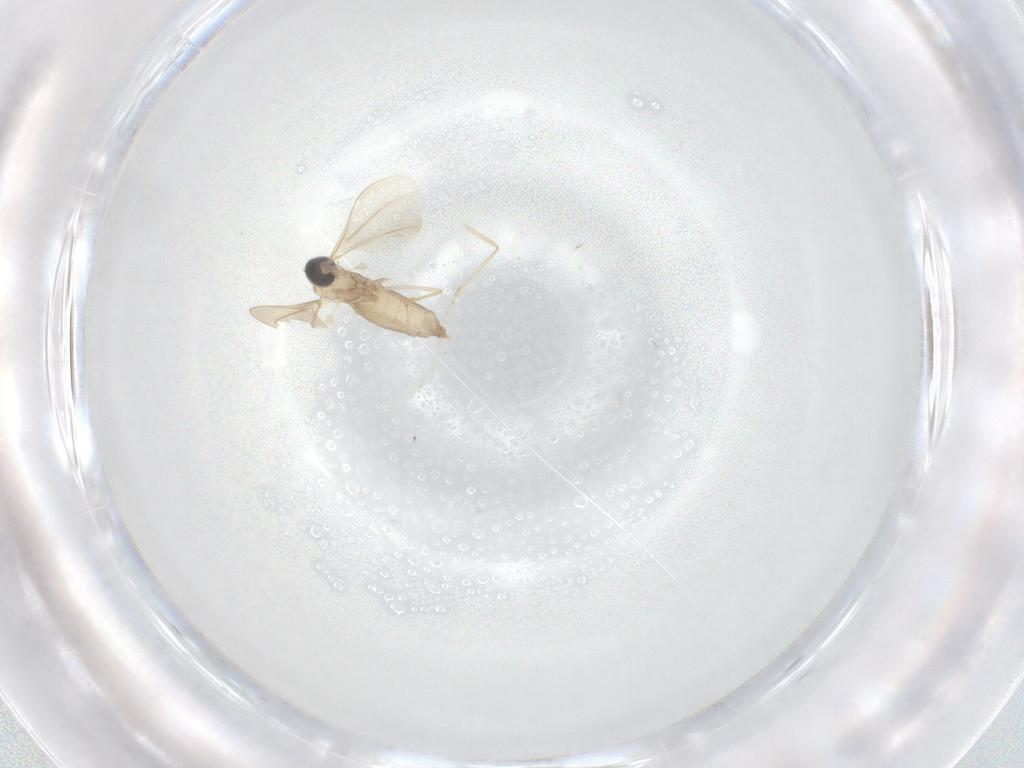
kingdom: Animalia
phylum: Arthropoda
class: Insecta
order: Diptera
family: Cecidomyiidae
